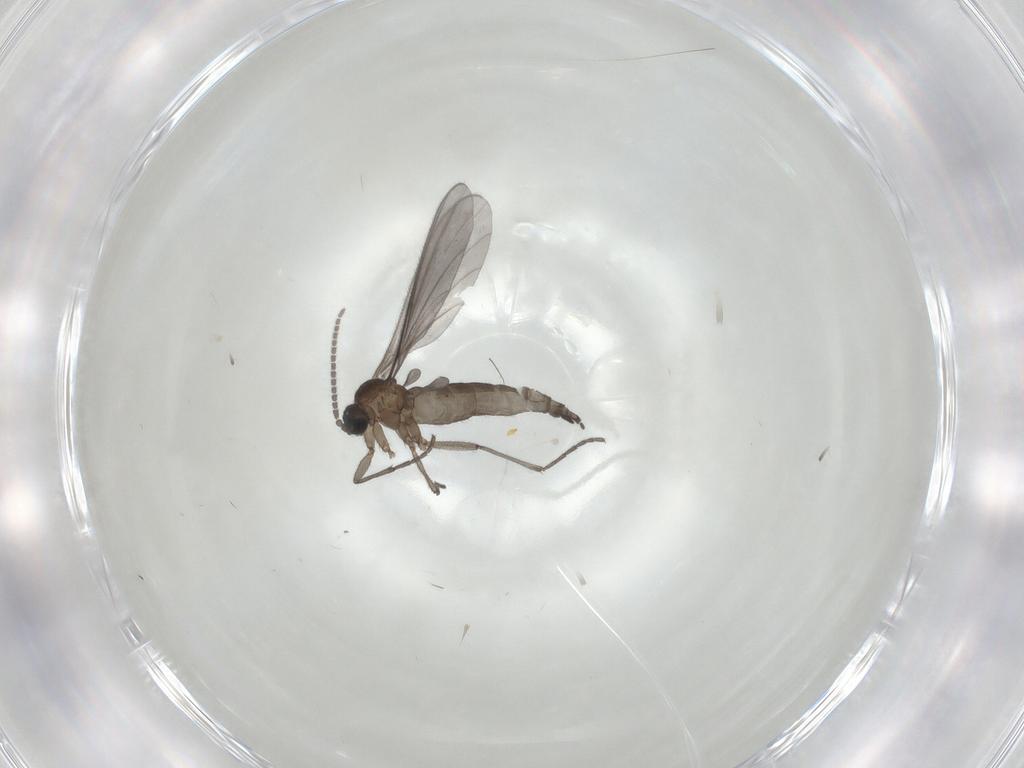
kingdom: Animalia
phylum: Arthropoda
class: Insecta
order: Diptera
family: Sciaridae
